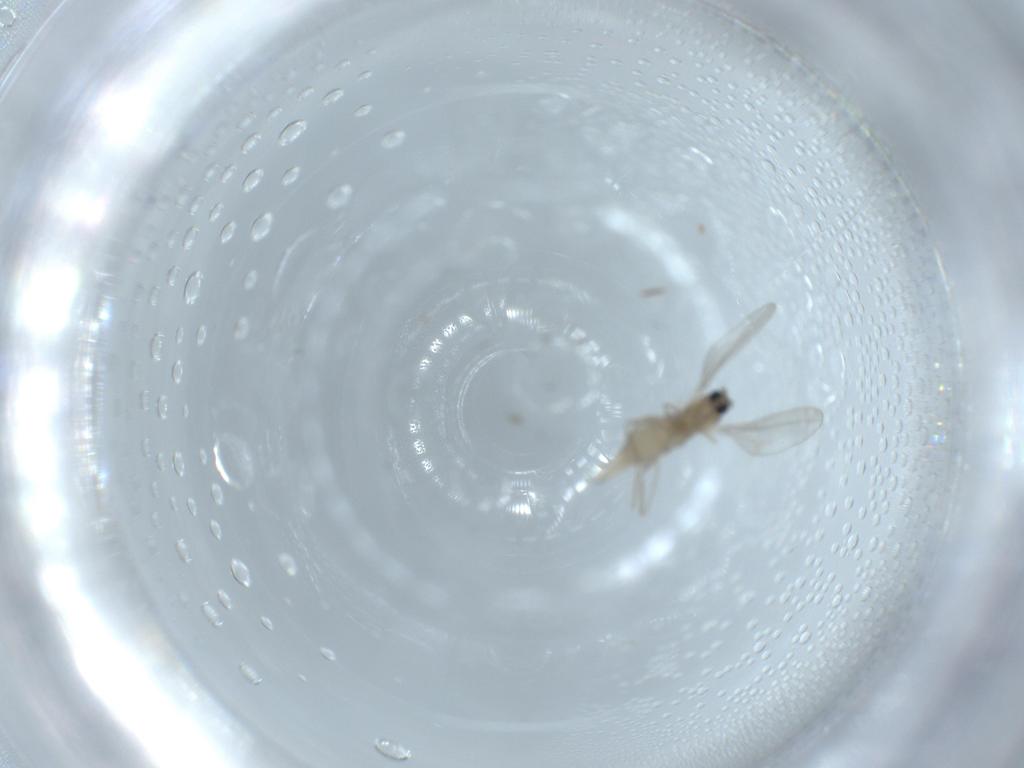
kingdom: Animalia
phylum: Arthropoda
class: Insecta
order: Diptera
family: Cecidomyiidae
